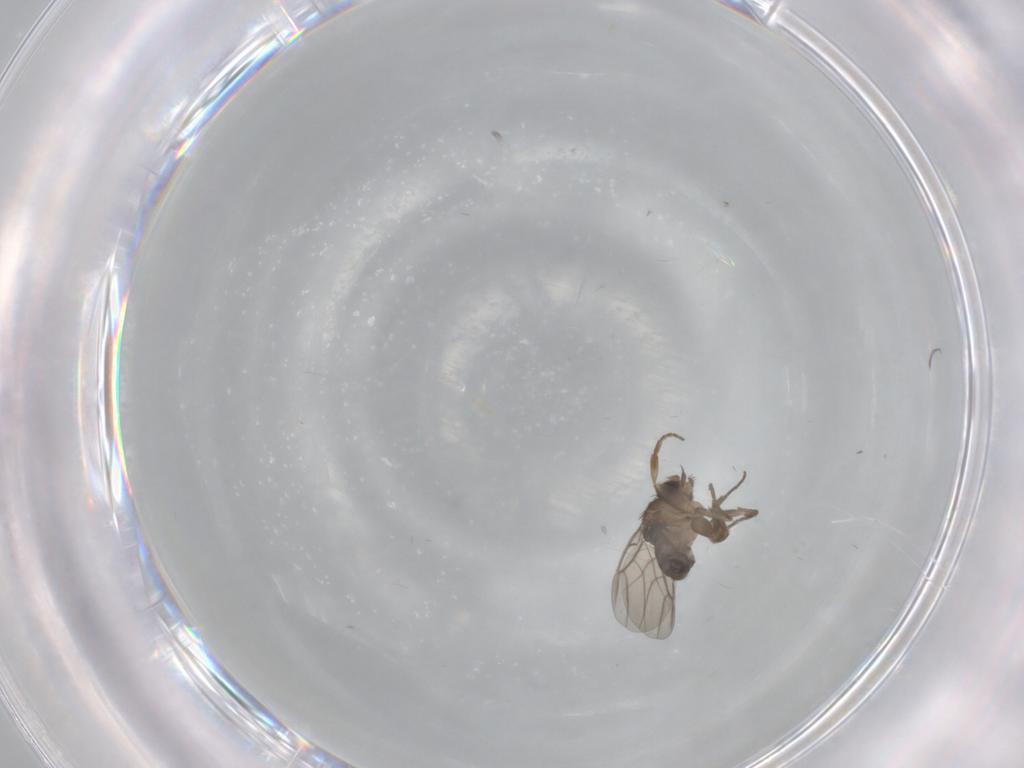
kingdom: Animalia
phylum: Arthropoda
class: Insecta
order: Diptera
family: Phoridae
